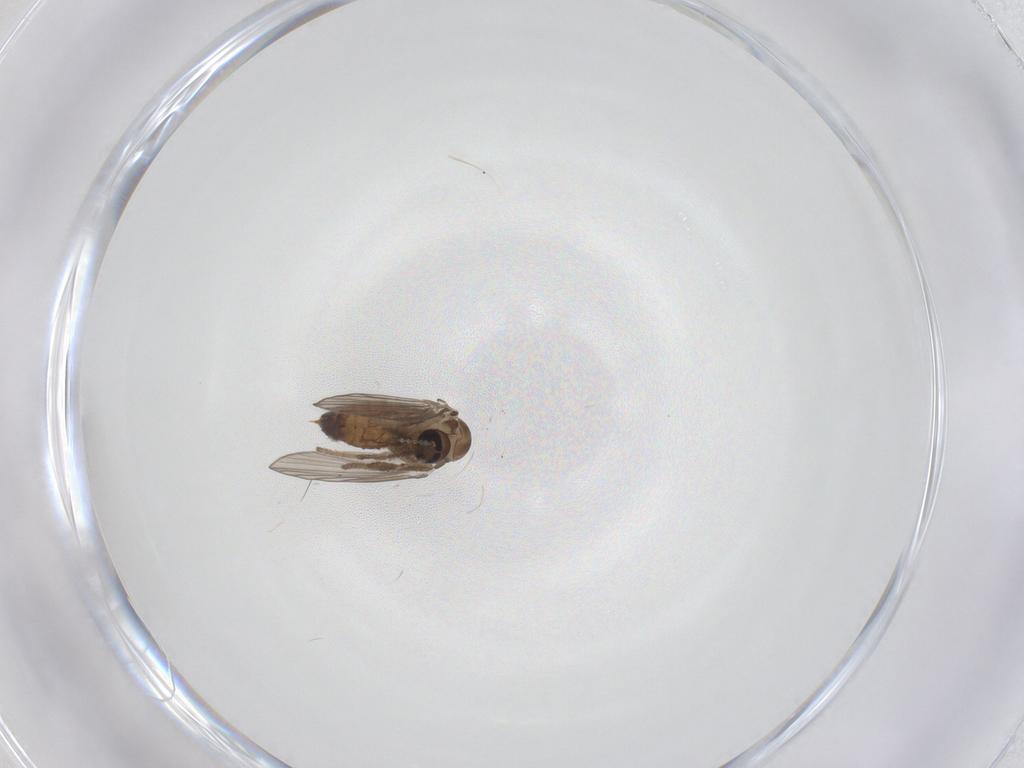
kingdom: Animalia
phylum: Arthropoda
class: Insecta
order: Diptera
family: Psychodidae
